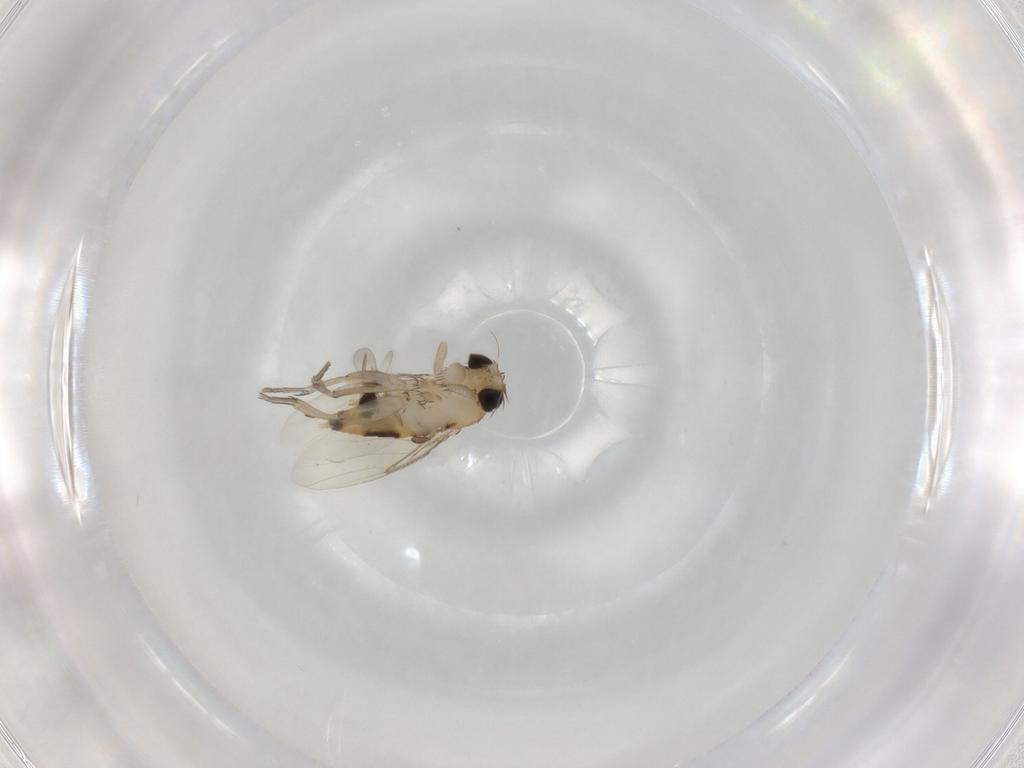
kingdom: Animalia
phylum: Arthropoda
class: Insecta
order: Diptera
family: Phoridae
